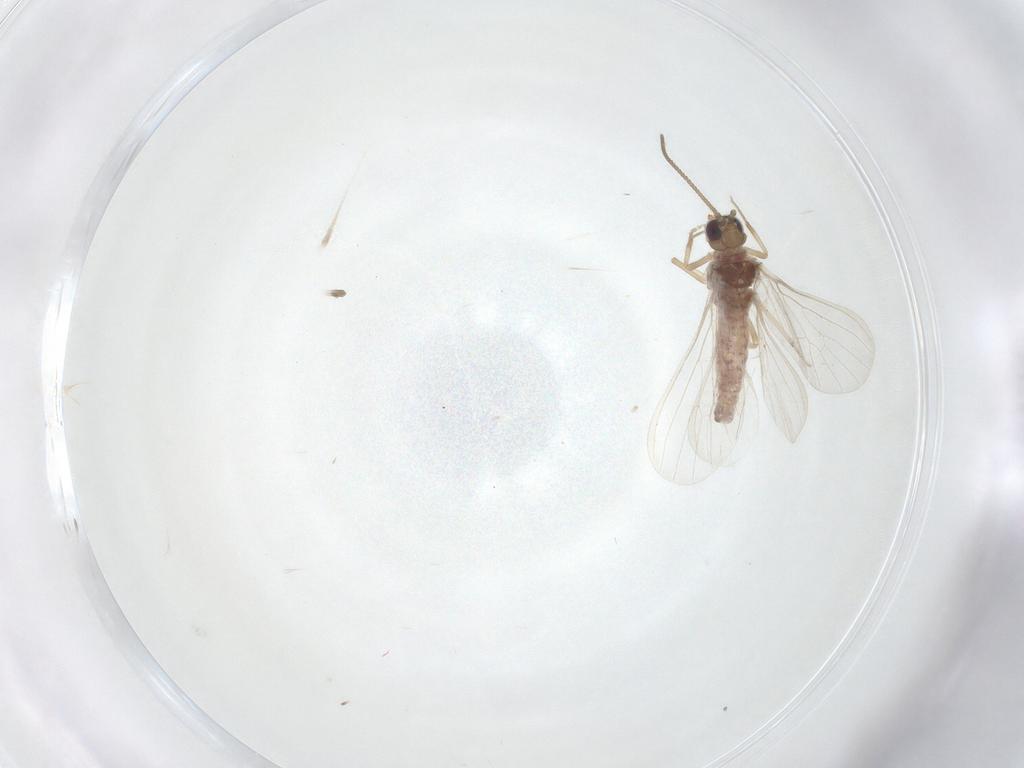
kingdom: Animalia
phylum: Arthropoda
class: Insecta
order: Neuroptera
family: Coniopterygidae
